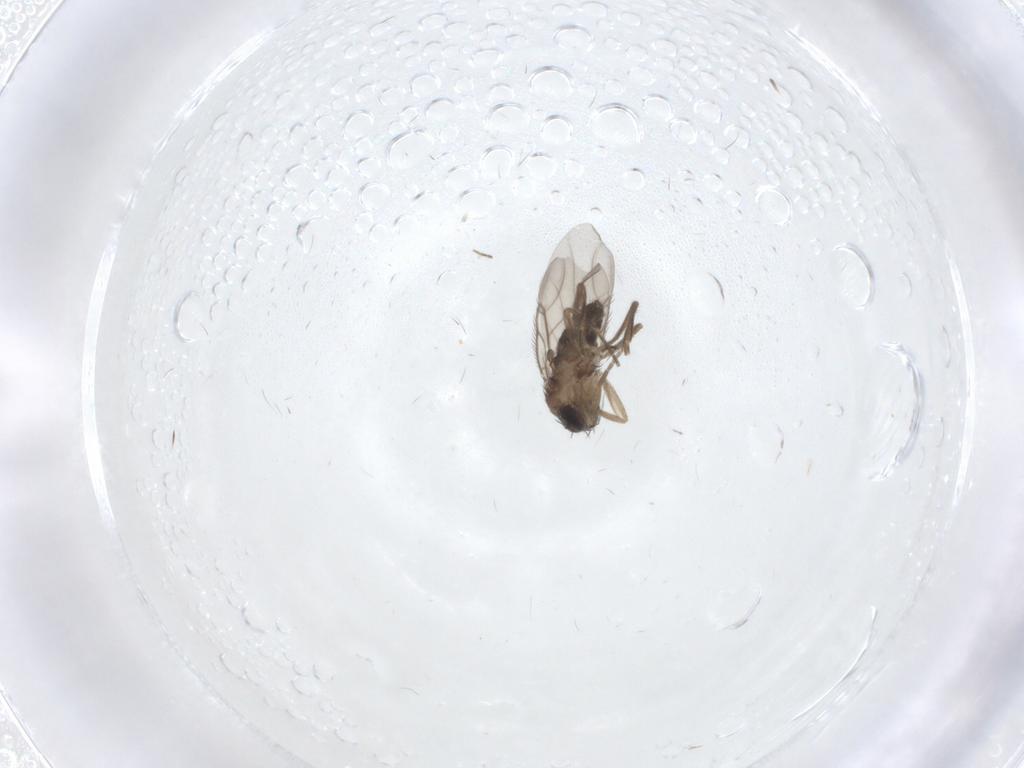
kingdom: Animalia
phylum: Arthropoda
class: Insecta
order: Diptera
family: Phoridae
